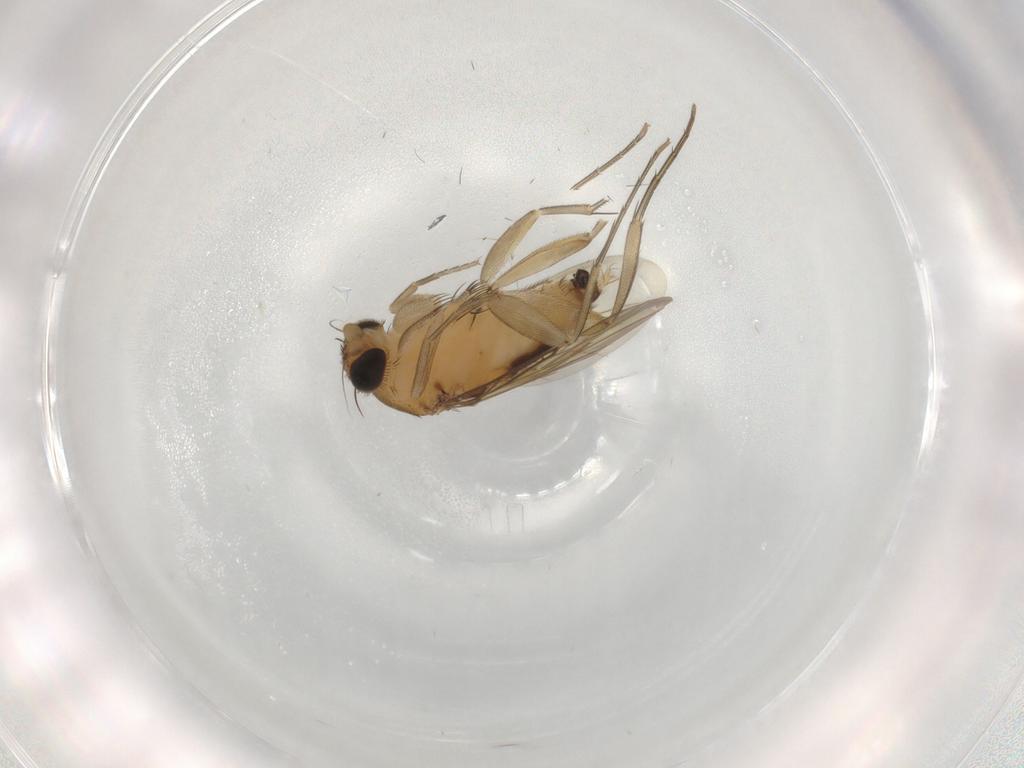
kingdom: Animalia
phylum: Arthropoda
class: Insecta
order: Diptera
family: Phoridae
